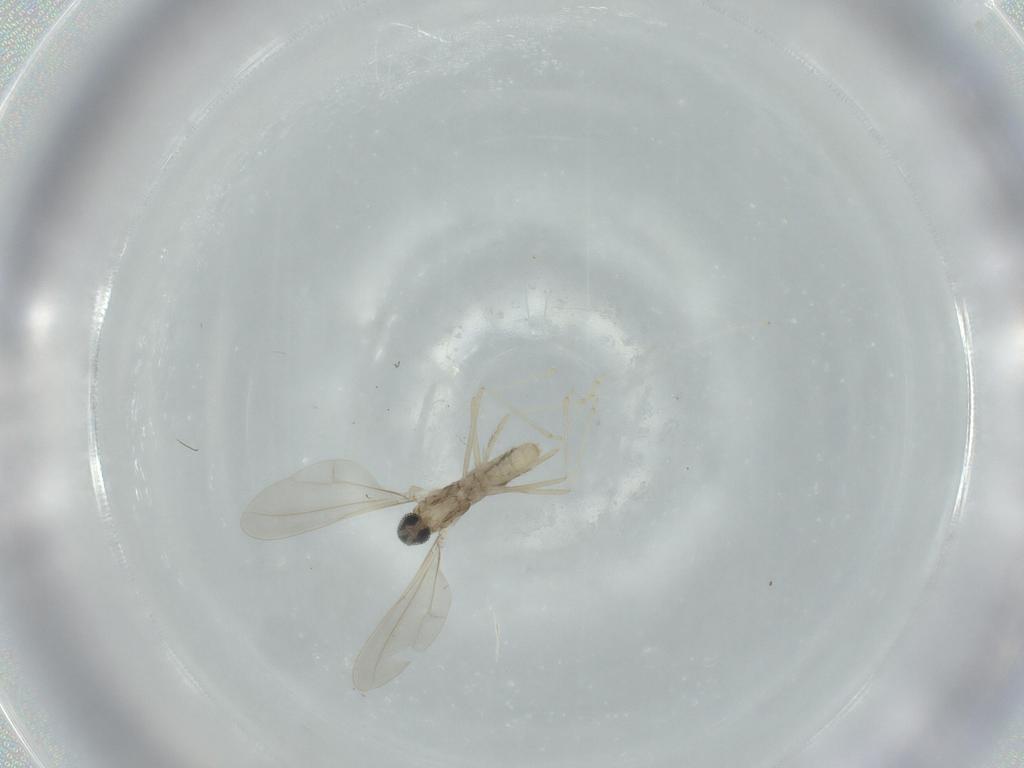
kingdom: Animalia
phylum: Arthropoda
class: Insecta
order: Diptera
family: Cecidomyiidae
